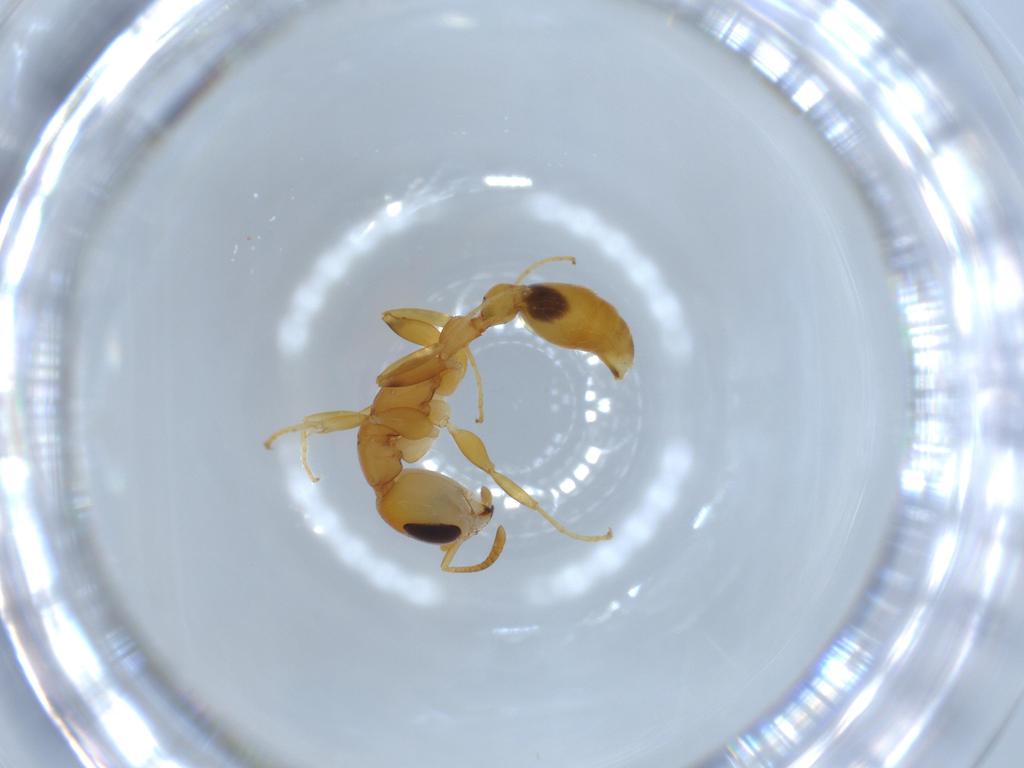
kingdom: Animalia
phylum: Arthropoda
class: Insecta
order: Hymenoptera
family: Formicidae
